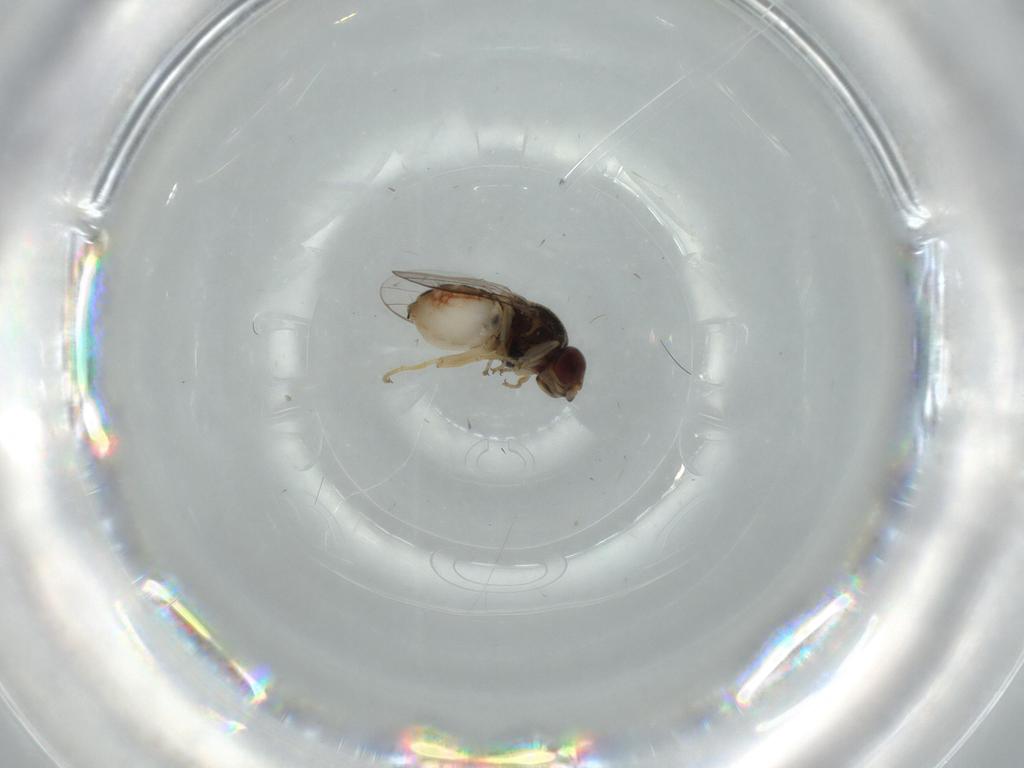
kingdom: Animalia
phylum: Arthropoda
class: Insecta
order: Diptera
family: Chloropidae
